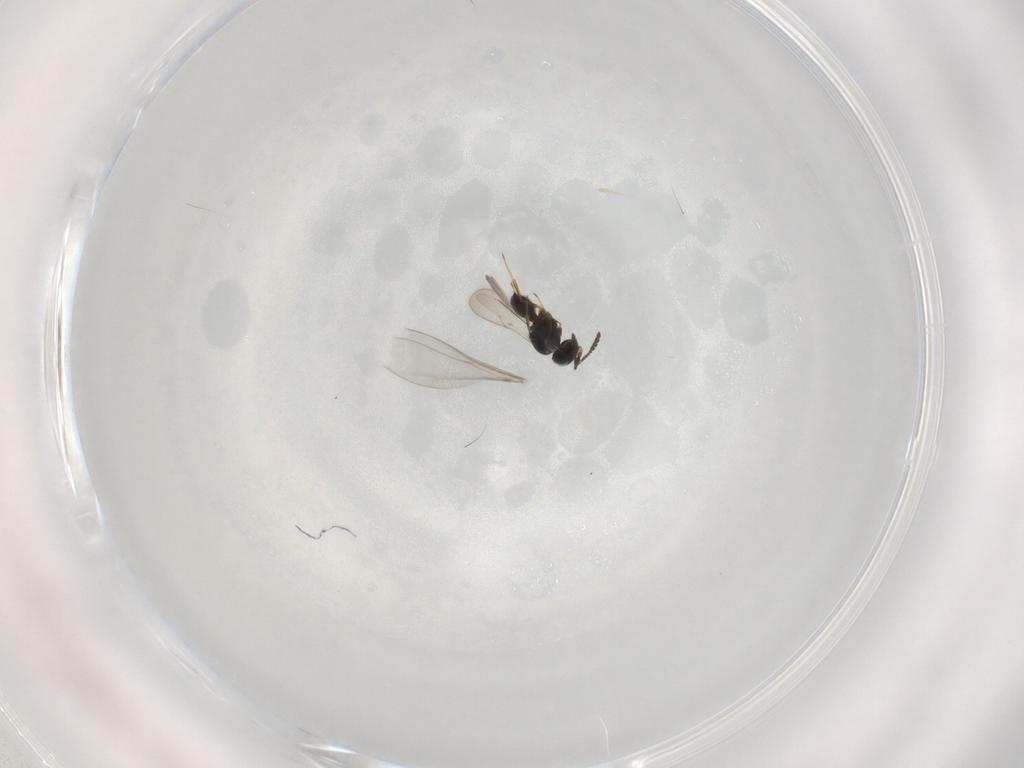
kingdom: Animalia
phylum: Arthropoda
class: Insecta
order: Hymenoptera
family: Scelionidae
